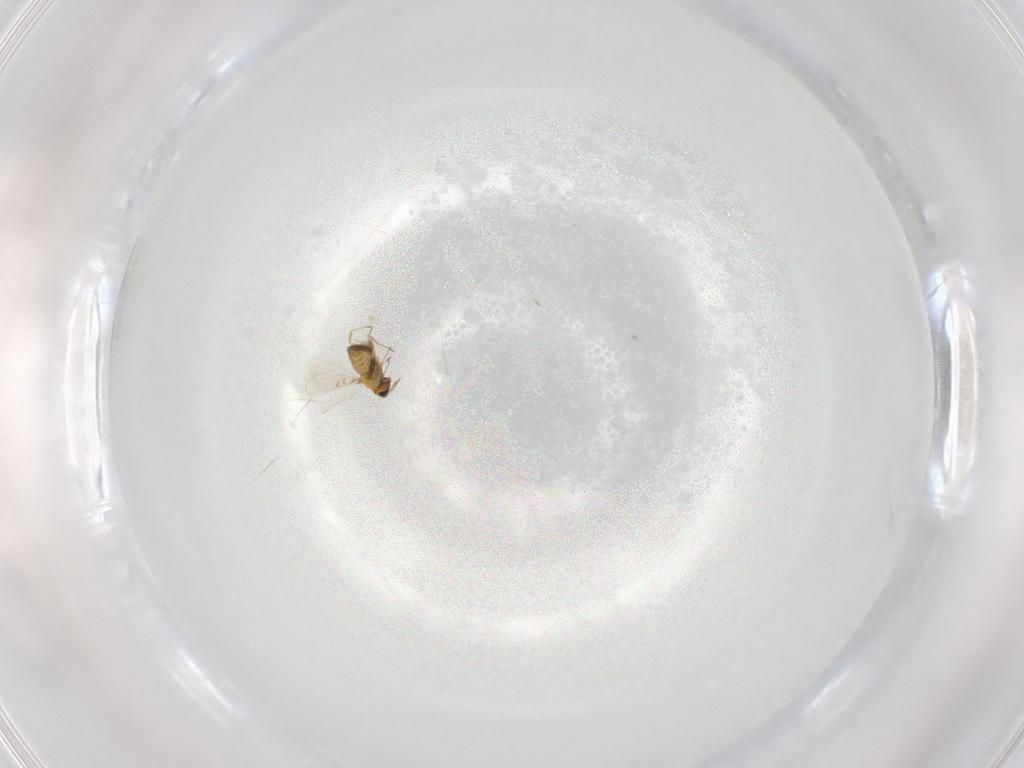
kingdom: Animalia
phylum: Arthropoda
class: Insecta
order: Hymenoptera
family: Trichogrammatidae
